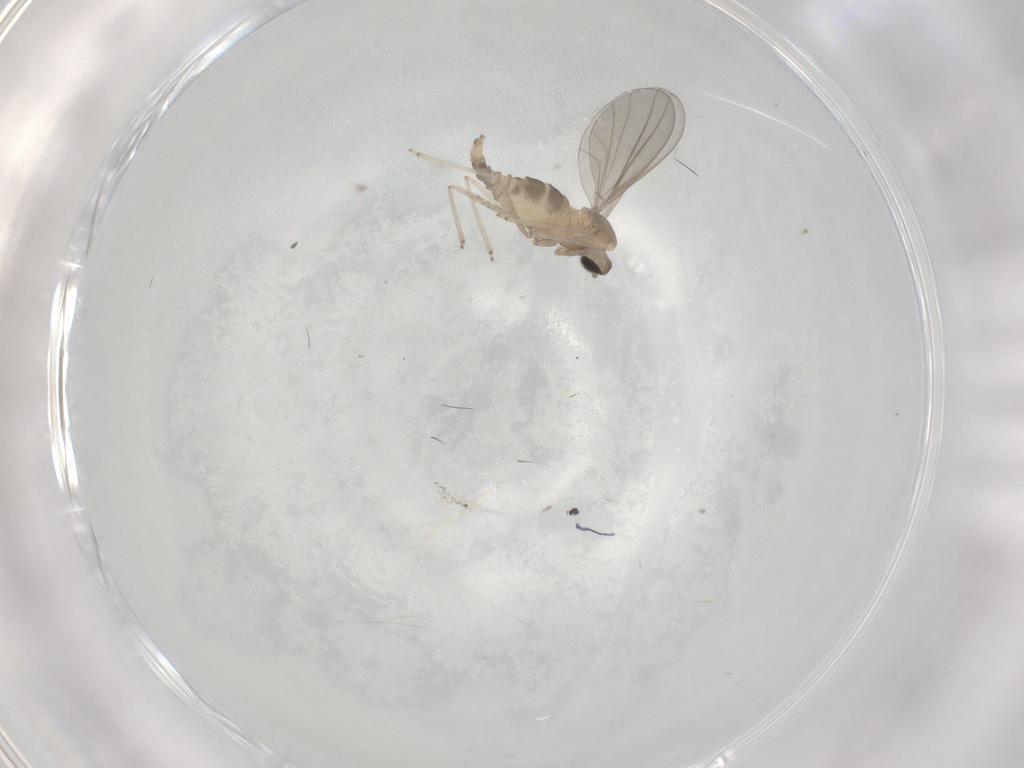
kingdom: Animalia
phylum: Arthropoda
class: Insecta
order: Diptera
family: Cecidomyiidae
